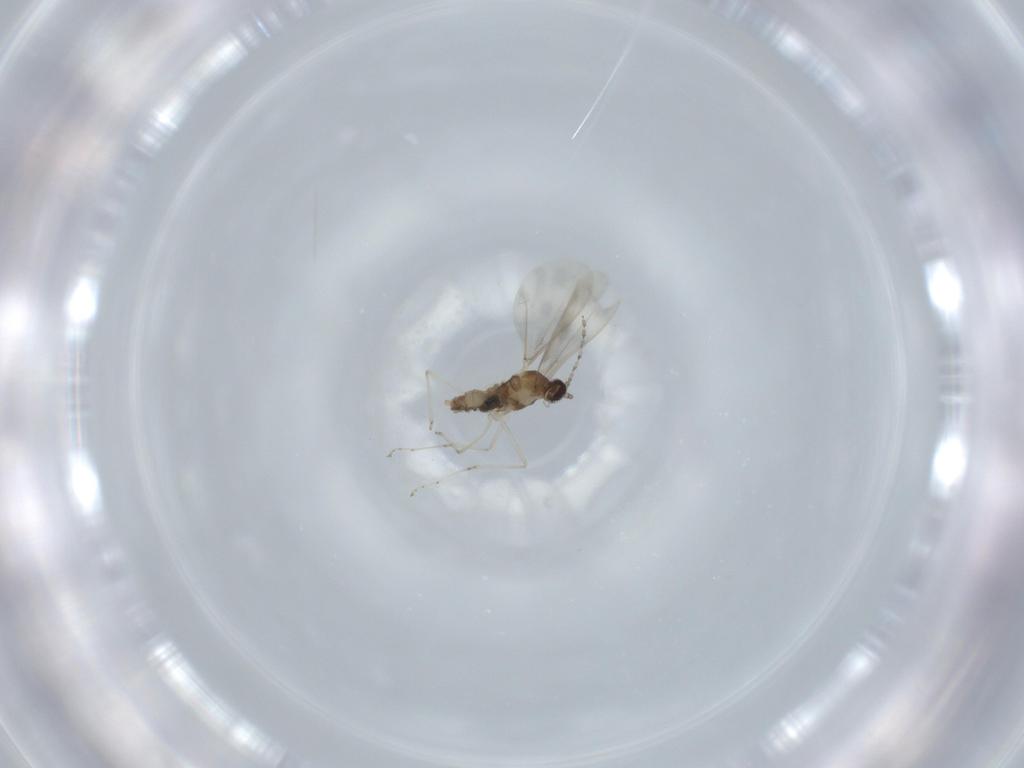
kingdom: Animalia
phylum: Arthropoda
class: Insecta
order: Diptera
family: Cecidomyiidae
